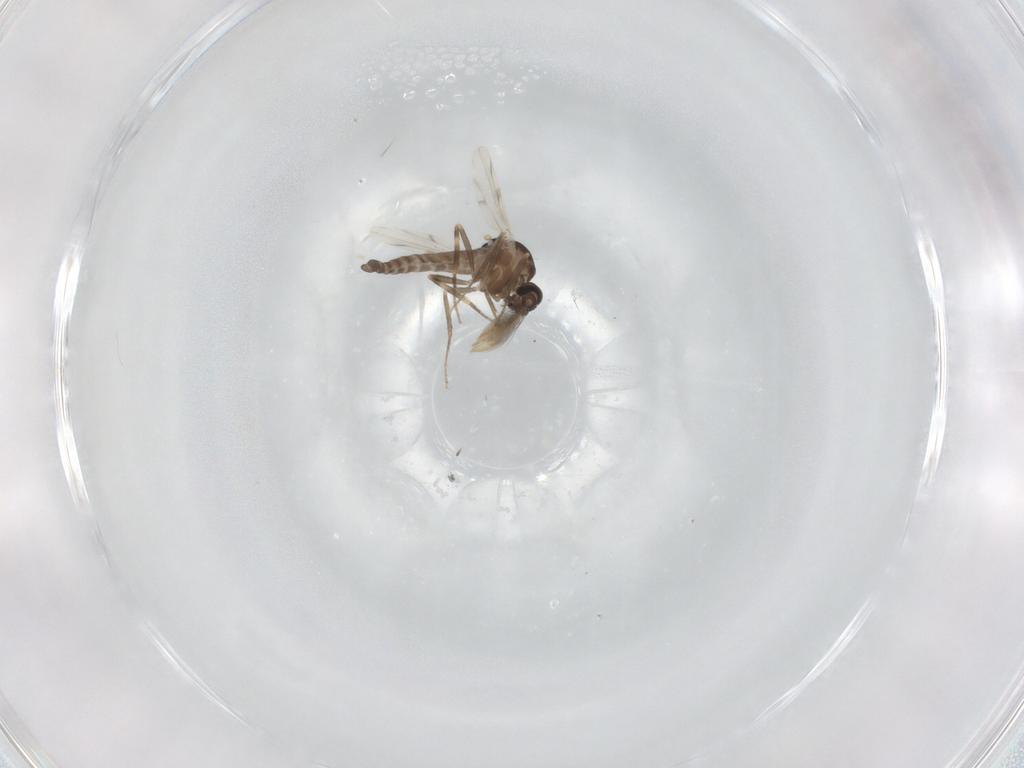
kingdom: Animalia
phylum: Arthropoda
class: Insecta
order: Diptera
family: Ceratopogonidae
